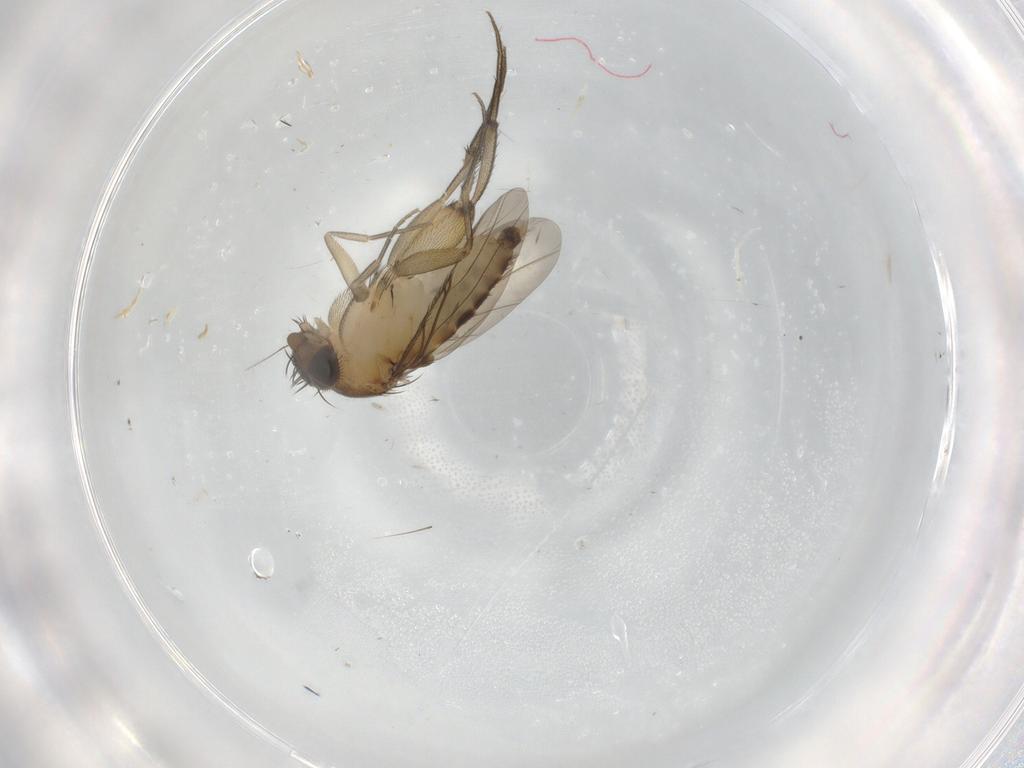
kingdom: Animalia
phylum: Arthropoda
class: Insecta
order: Diptera
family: Phoridae
